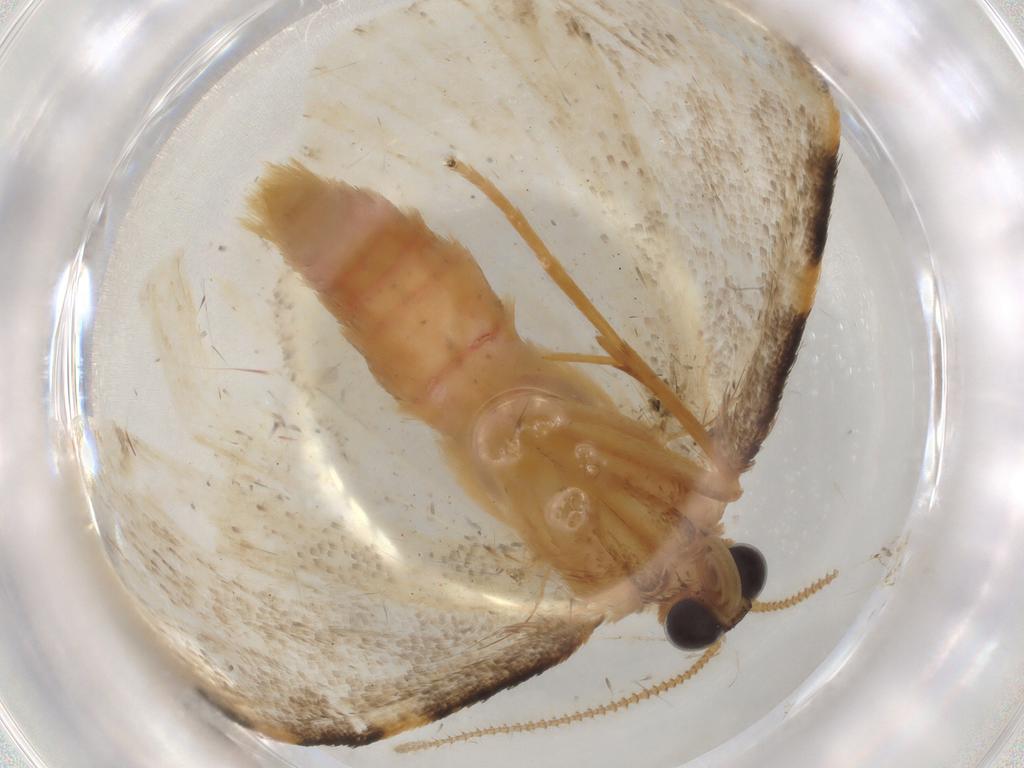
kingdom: Animalia
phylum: Arthropoda
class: Insecta
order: Lepidoptera
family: Geometridae
